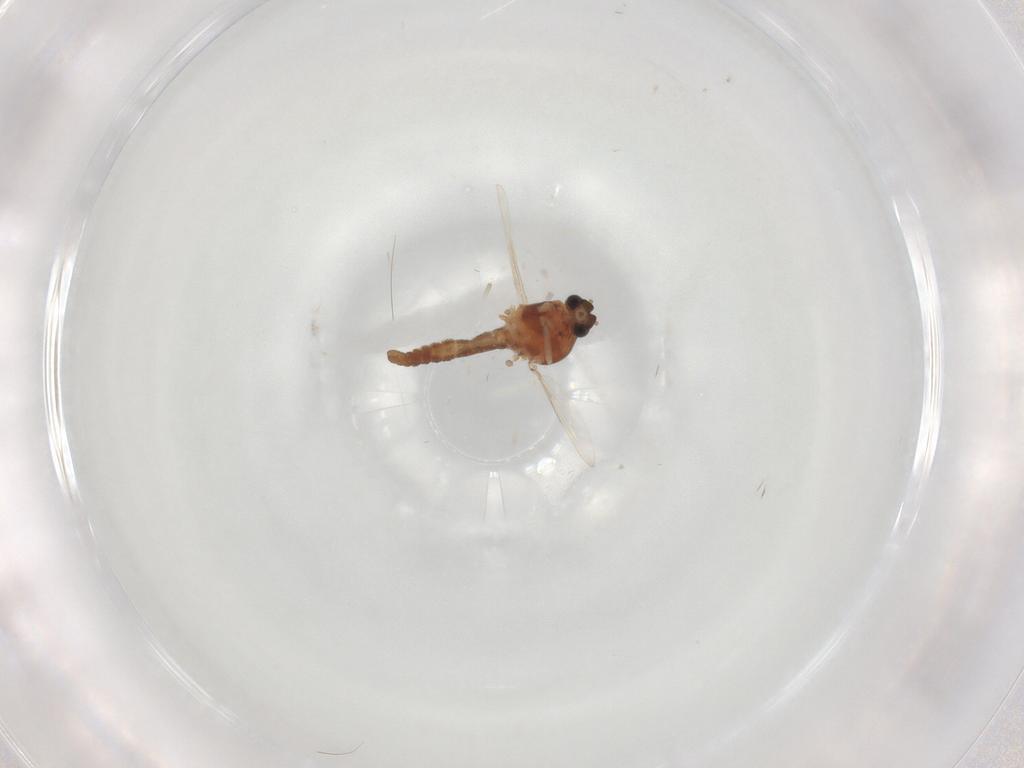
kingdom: Animalia
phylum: Arthropoda
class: Insecta
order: Diptera
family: Ceratopogonidae
